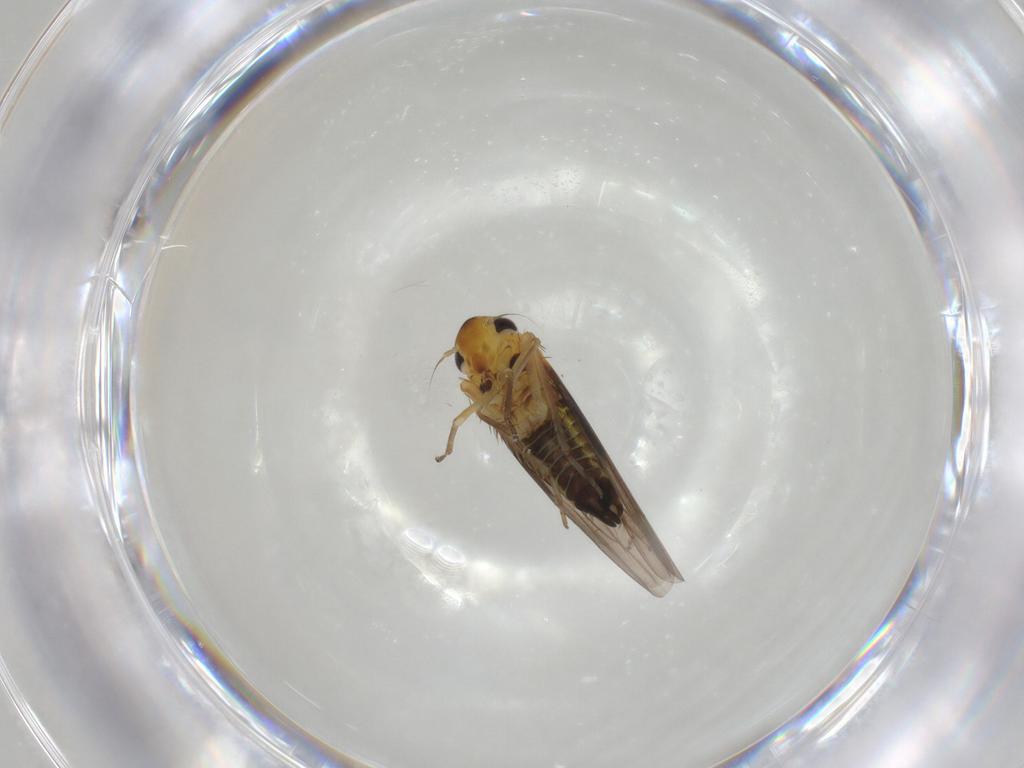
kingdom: Animalia
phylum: Arthropoda
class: Insecta
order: Hemiptera
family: Cicadellidae
